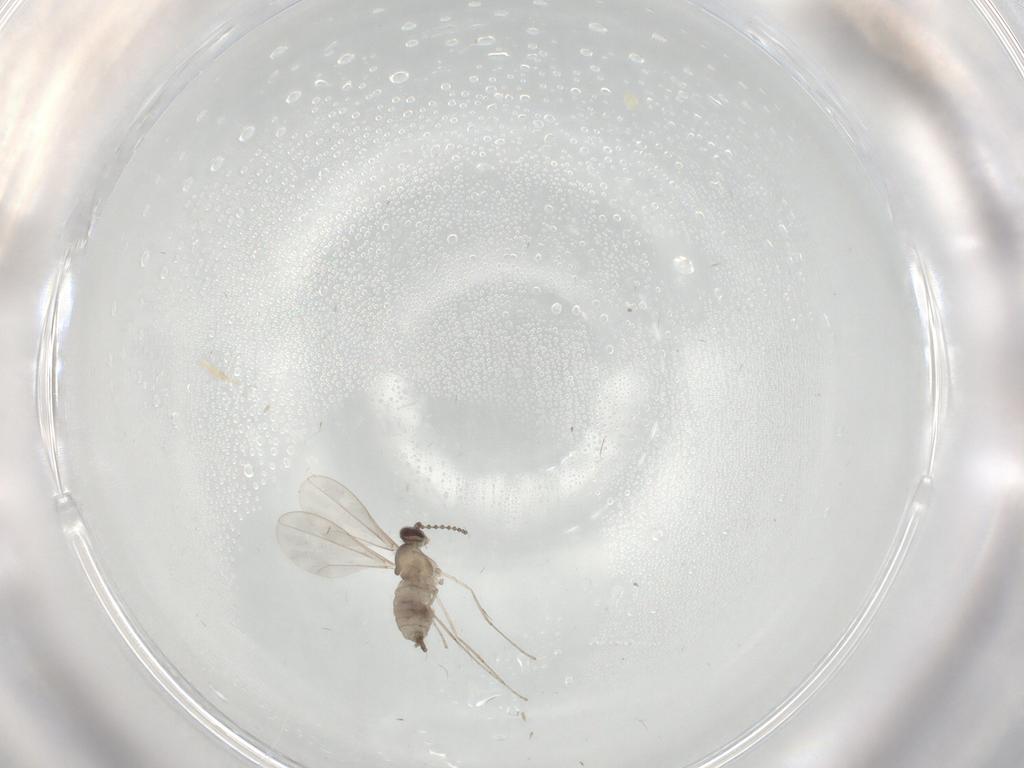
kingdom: Animalia
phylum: Arthropoda
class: Insecta
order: Diptera
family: Cecidomyiidae
